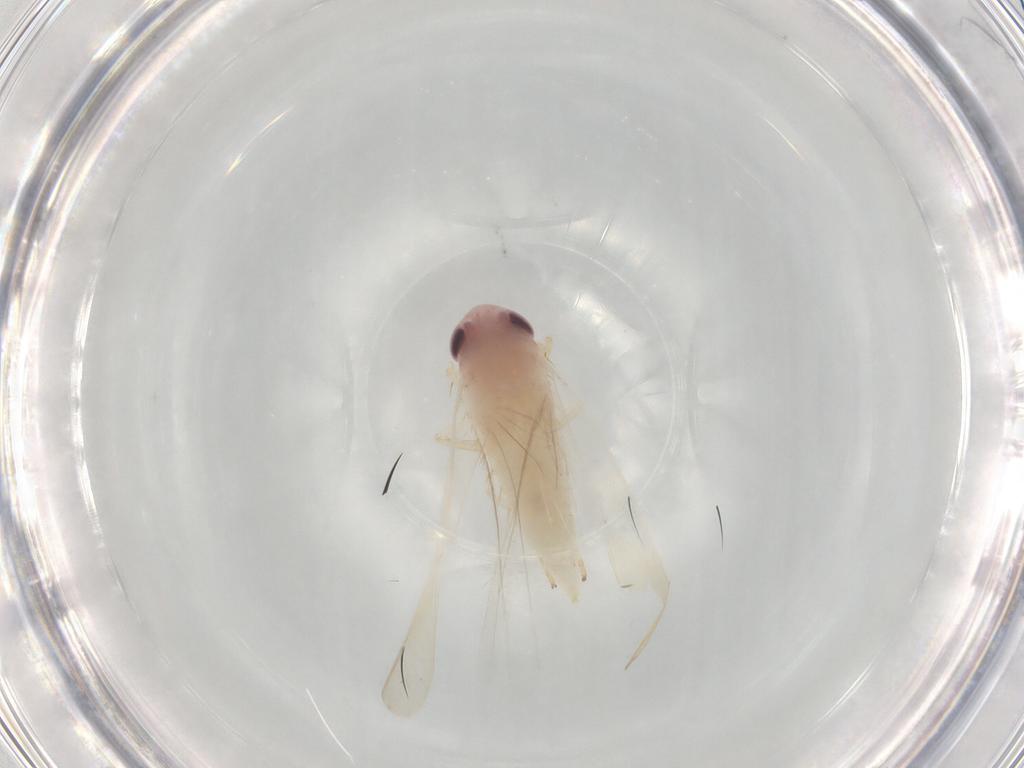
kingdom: Animalia
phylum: Arthropoda
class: Insecta
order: Hemiptera
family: Cicadellidae
